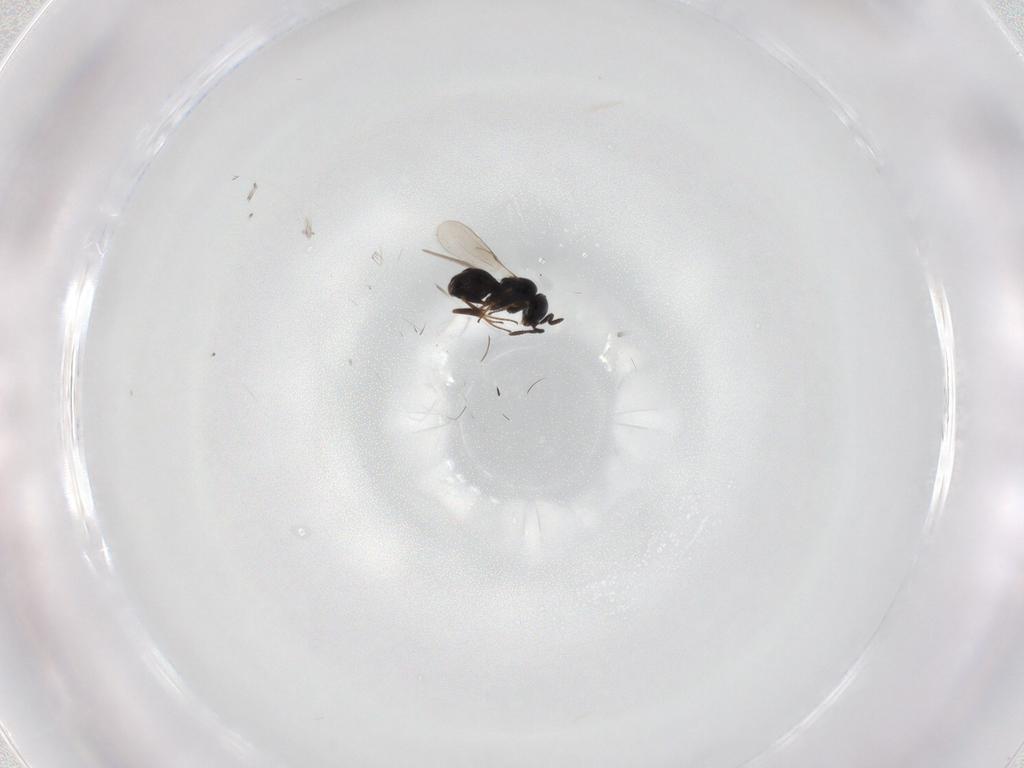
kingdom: Animalia
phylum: Arthropoda
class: Insecta
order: Hymenoptera
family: Scelionidae
